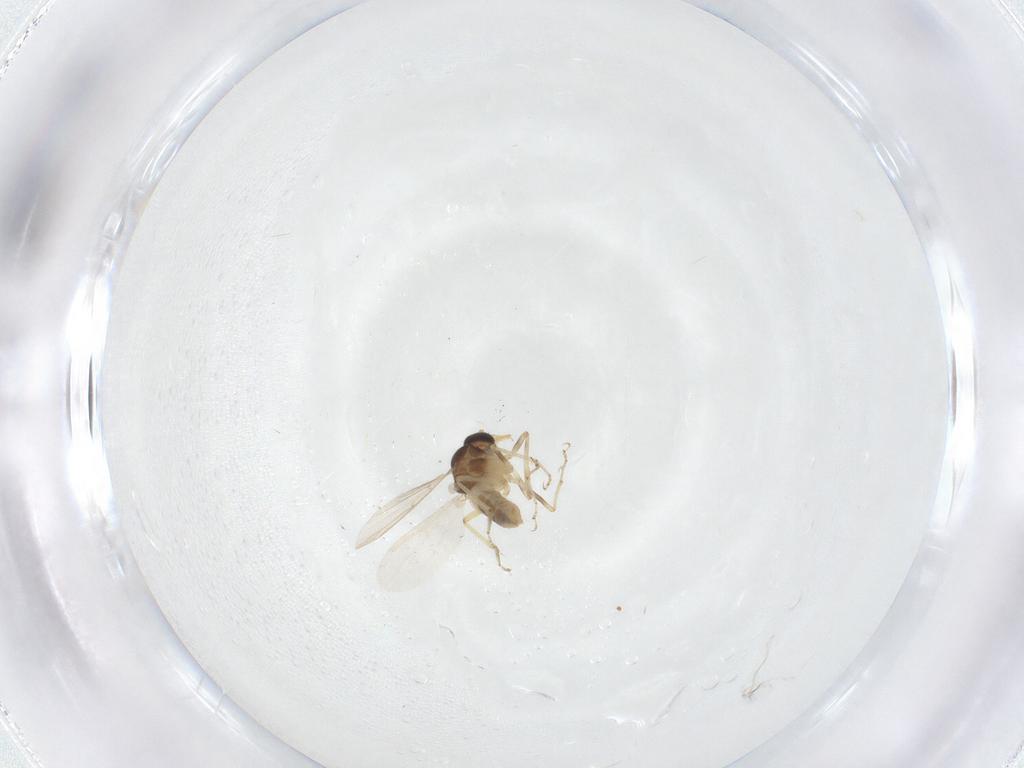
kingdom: Animalia
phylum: Arthropoda
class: Insecta
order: Diptera
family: Ceratopogonidae
